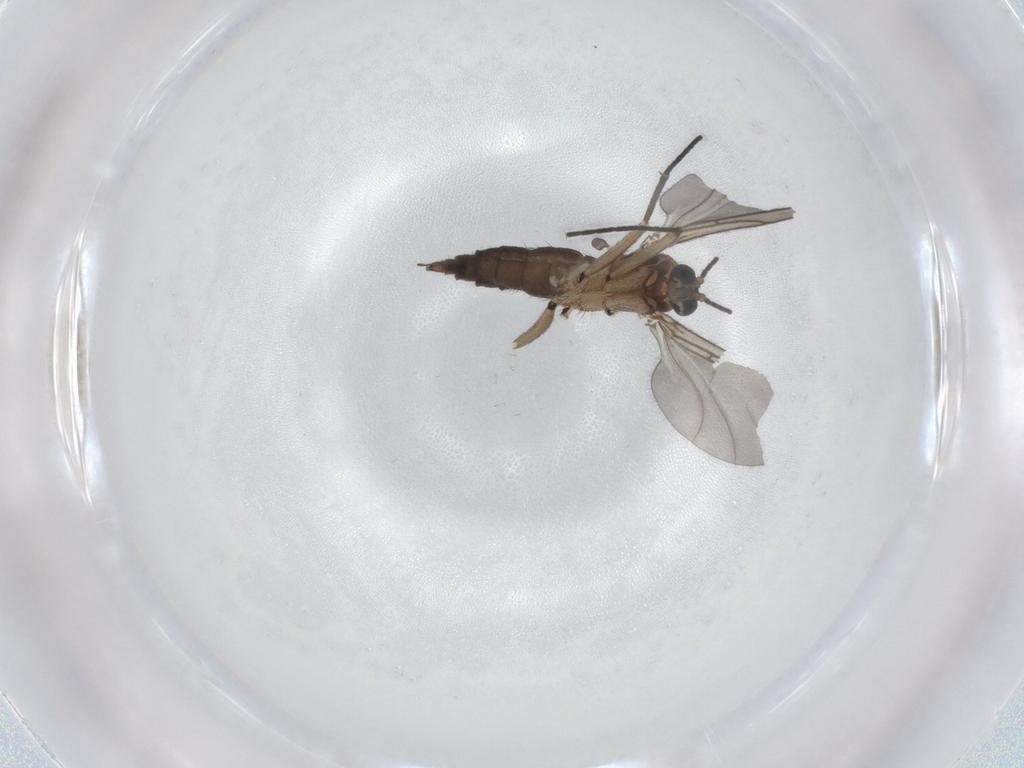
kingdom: Animalia
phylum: Arthropoda
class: Insecta
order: Diptera
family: Sciaridae
